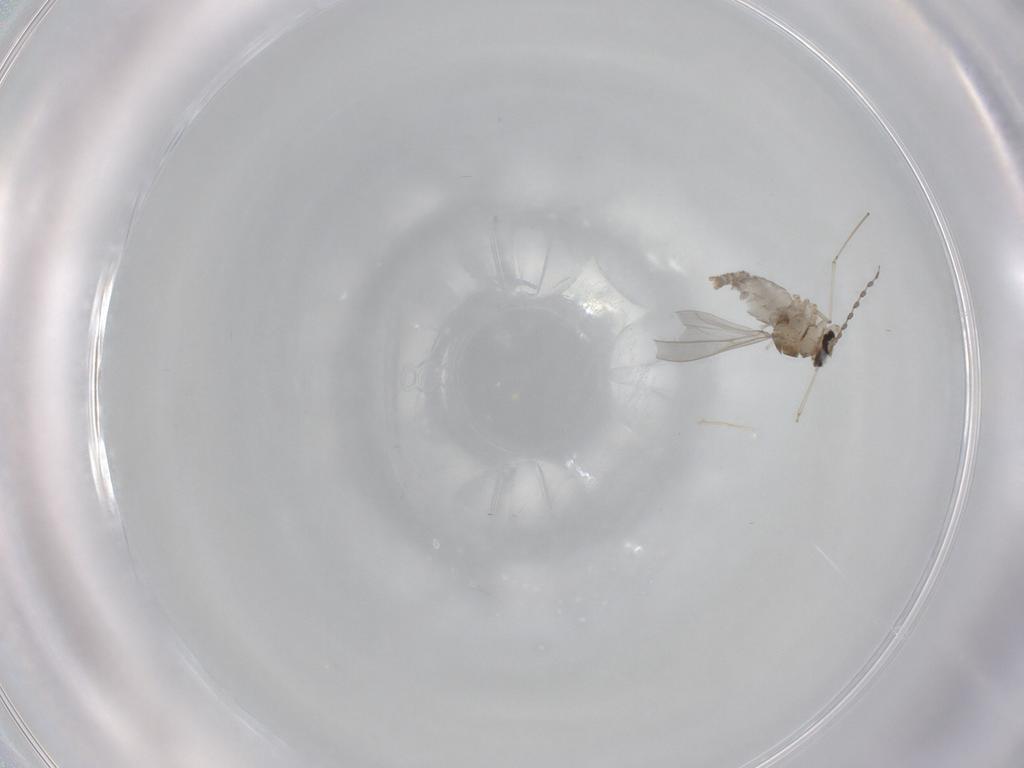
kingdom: Animalia
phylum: Arthropoda
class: Insecta
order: Diptera
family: Cecidomyiidae
